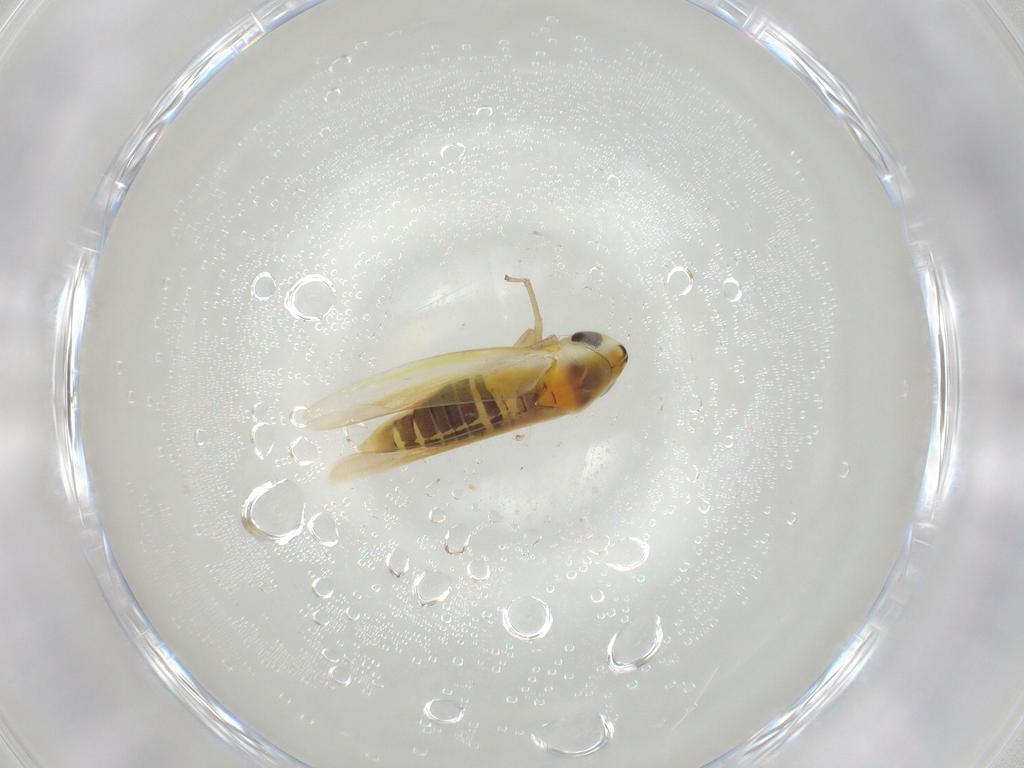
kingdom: Animalia
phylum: Arthropoda
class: Insecta
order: Hemiptera
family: Cicadellidae
